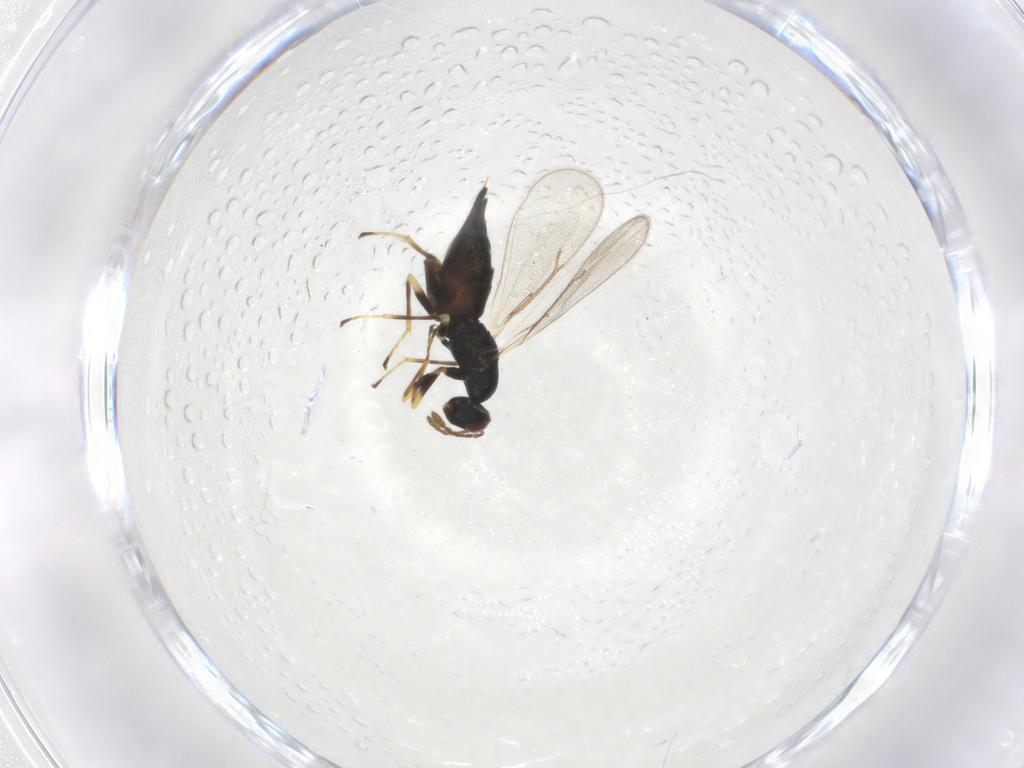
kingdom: Animalia
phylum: Arthropoda
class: Insecta
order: Hymenoptera
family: Eulophidae
